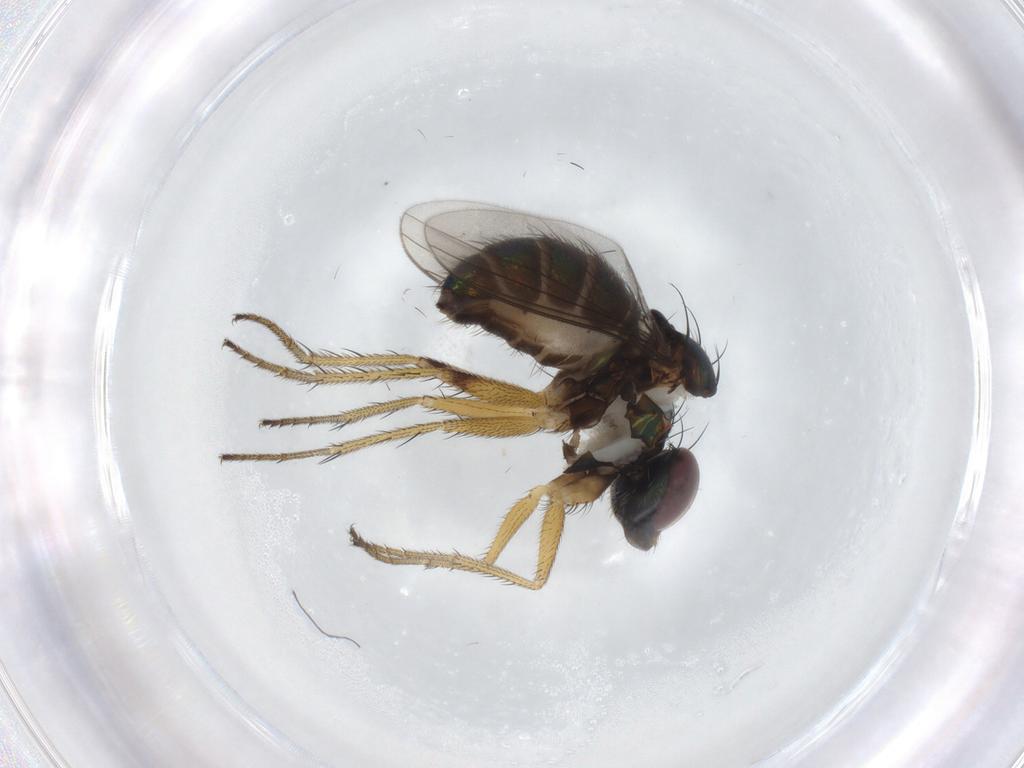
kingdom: Animalia
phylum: Arthropoda
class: Insecta
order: Diptera
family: Dolichopodidae
